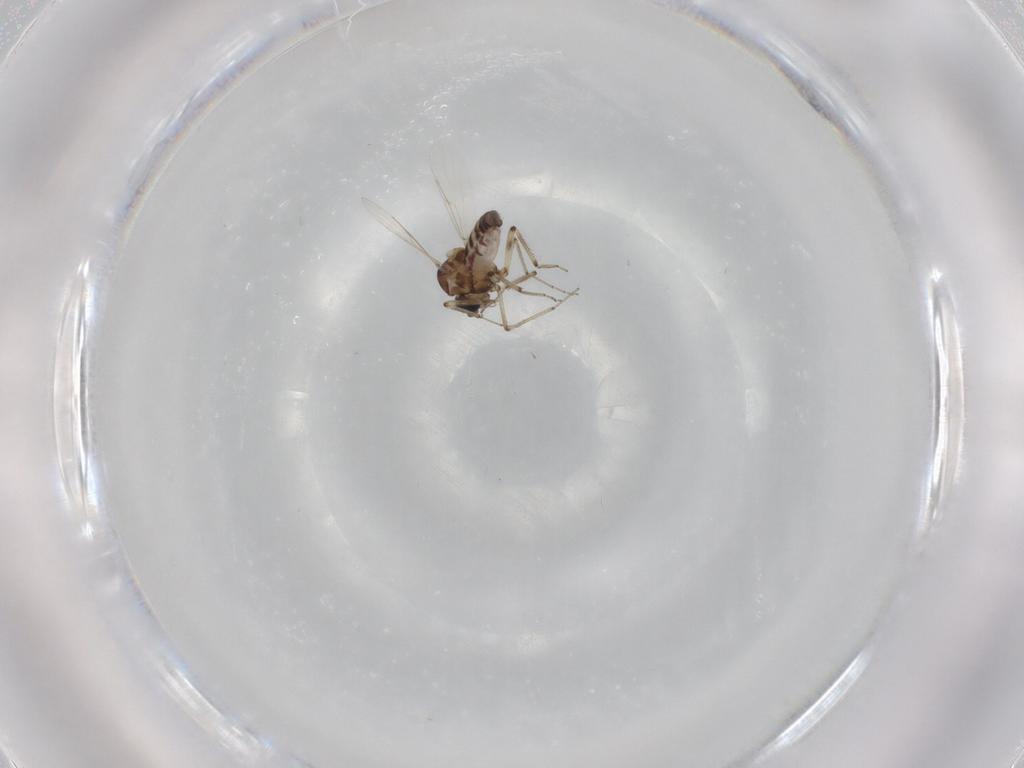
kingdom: Animalia
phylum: Arthropoda
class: Insecta
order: Diptera
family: Ceratopogonidae
